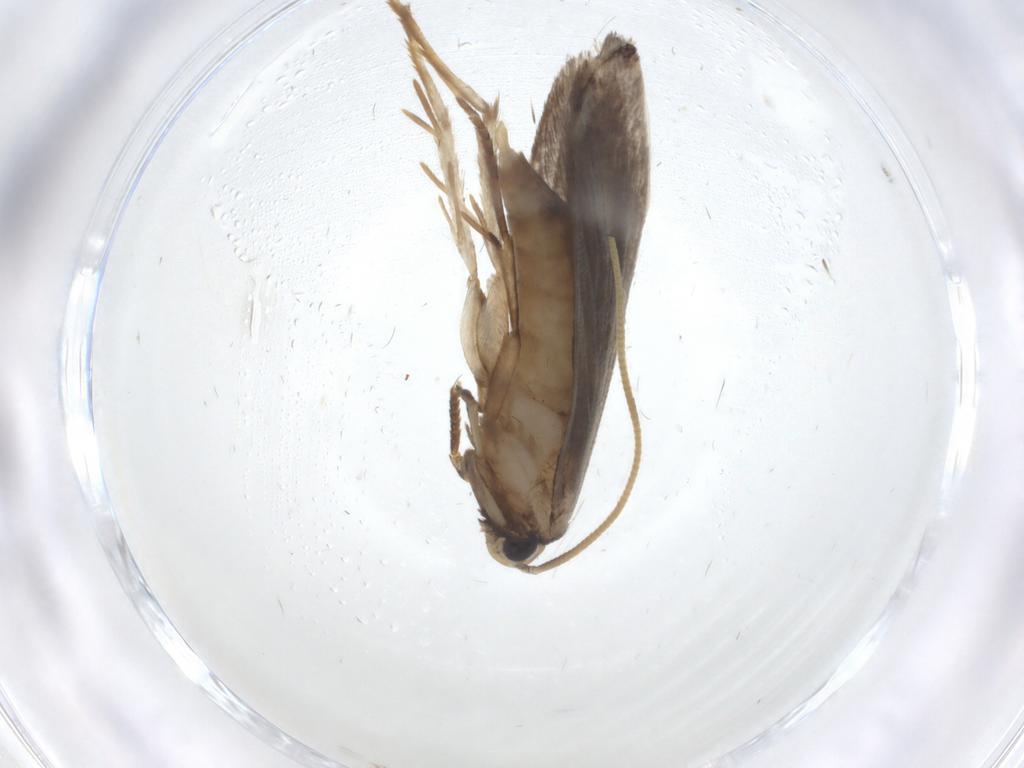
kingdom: Animalia
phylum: Arthropoda
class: Insecta
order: Lepidoptera
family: Tineidae
